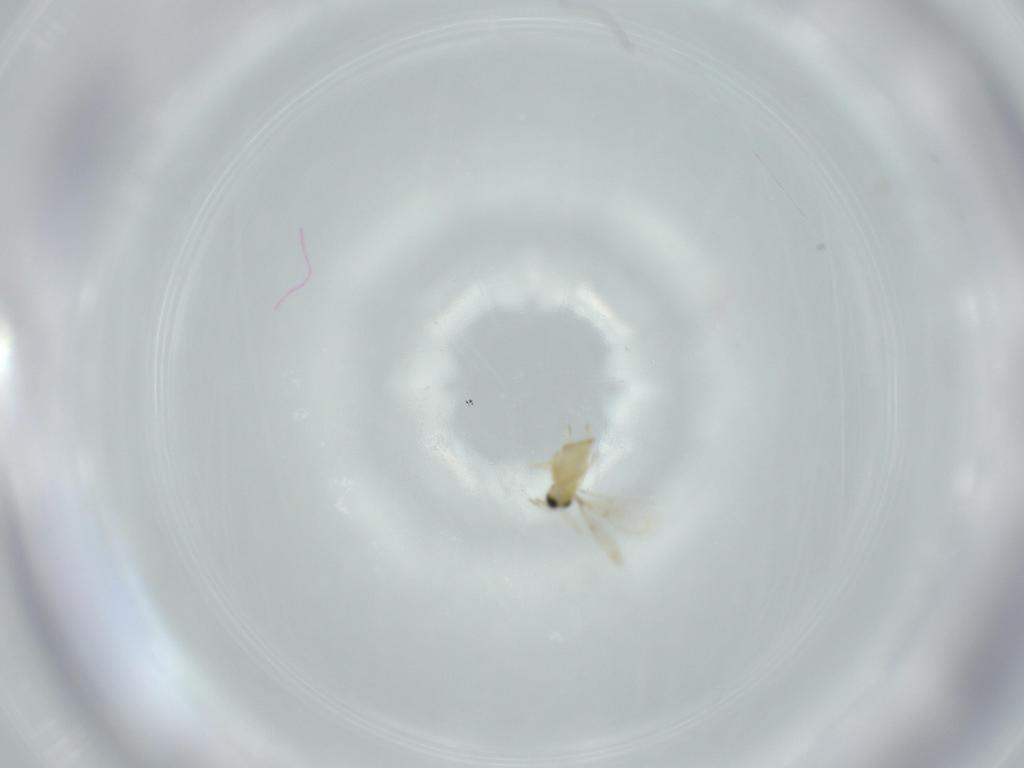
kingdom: Animalia
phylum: Arthropoda
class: Insecta
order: Hymenoptera
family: Trichogrammatidae
